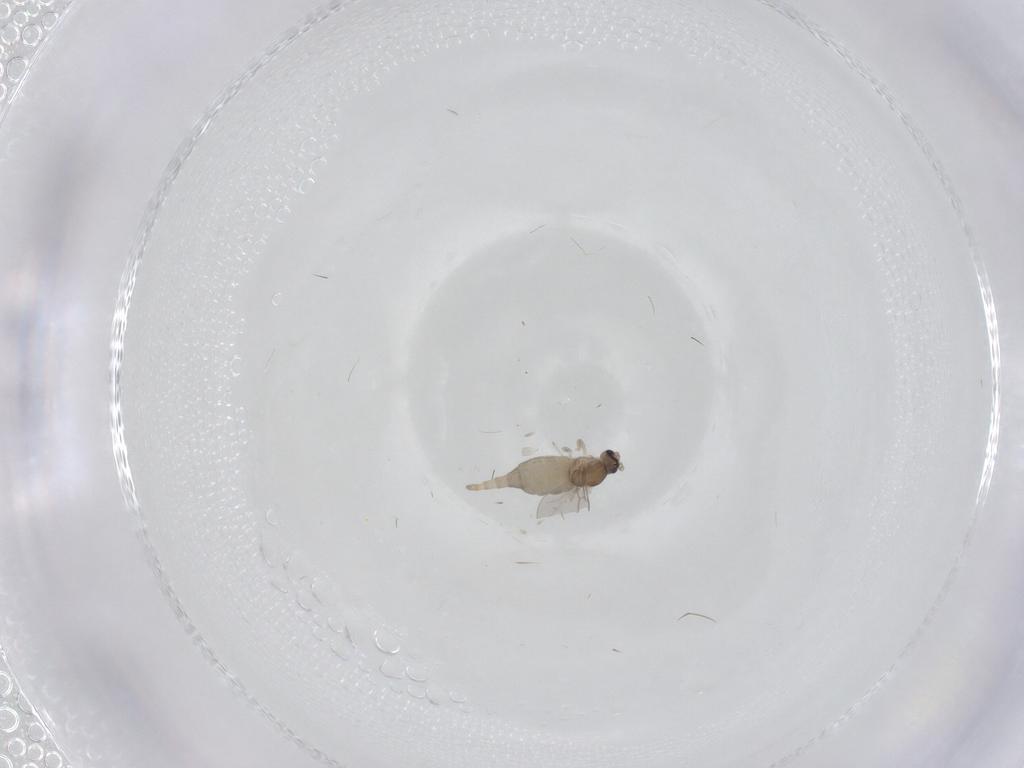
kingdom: Animalia
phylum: Arthropoda
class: Insecta
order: Diptera
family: Cecidomyiidae
